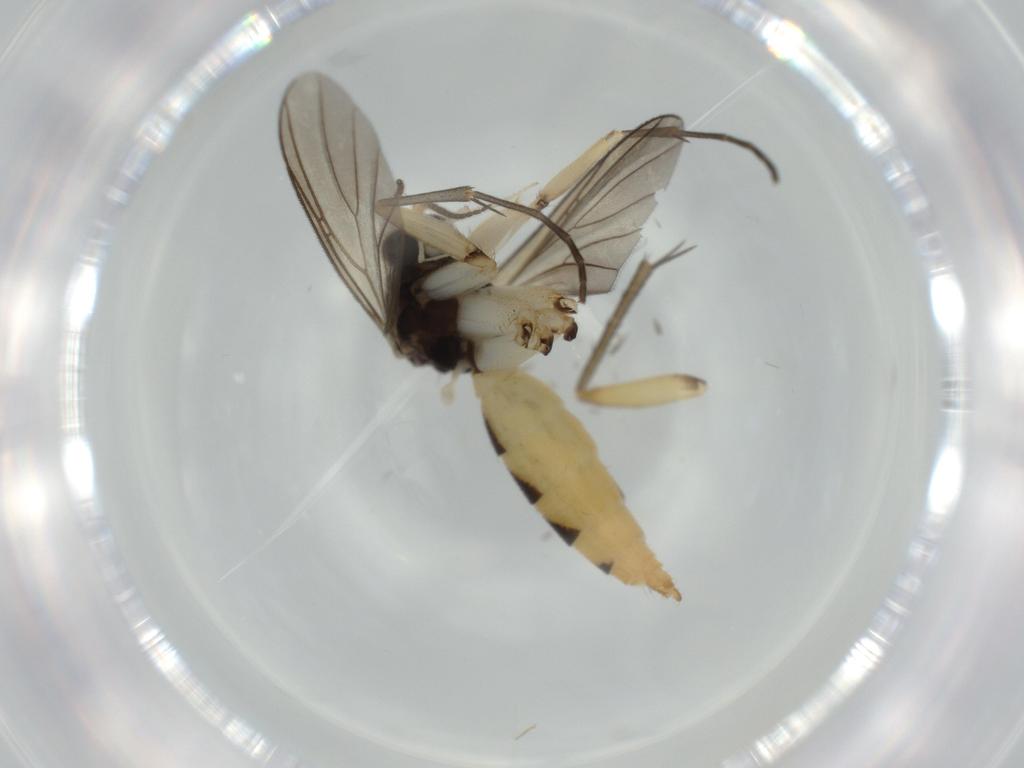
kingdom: Animalia
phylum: Arthropoda
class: Insecta
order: Diptera
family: Mycetophilidae
